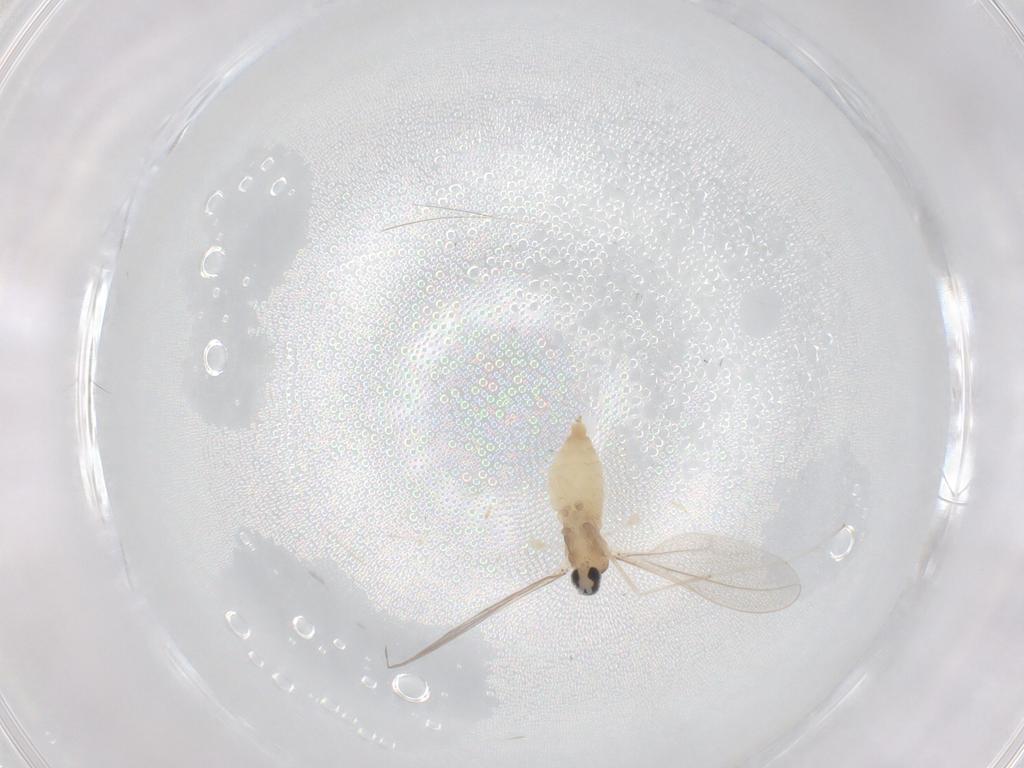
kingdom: Animalia
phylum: Arthropoda
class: Insecta
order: Diptera
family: Cecidomyiidae
